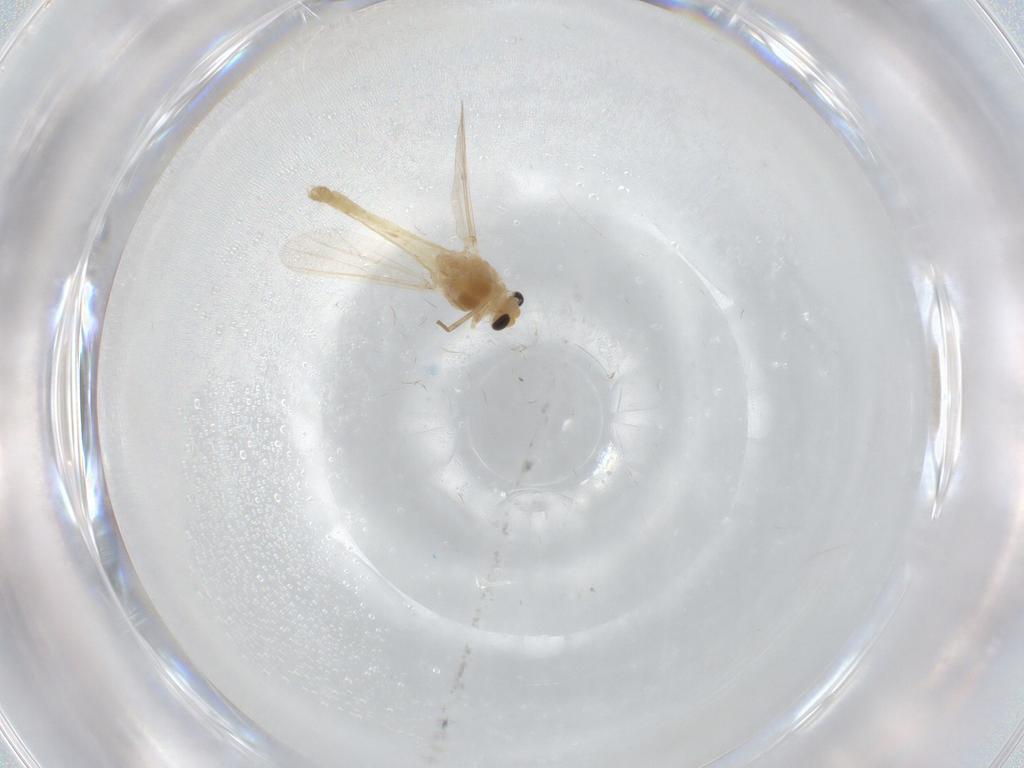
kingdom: Animalia
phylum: Arthropoda
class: Insecta
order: Diptera
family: Chironomidae
